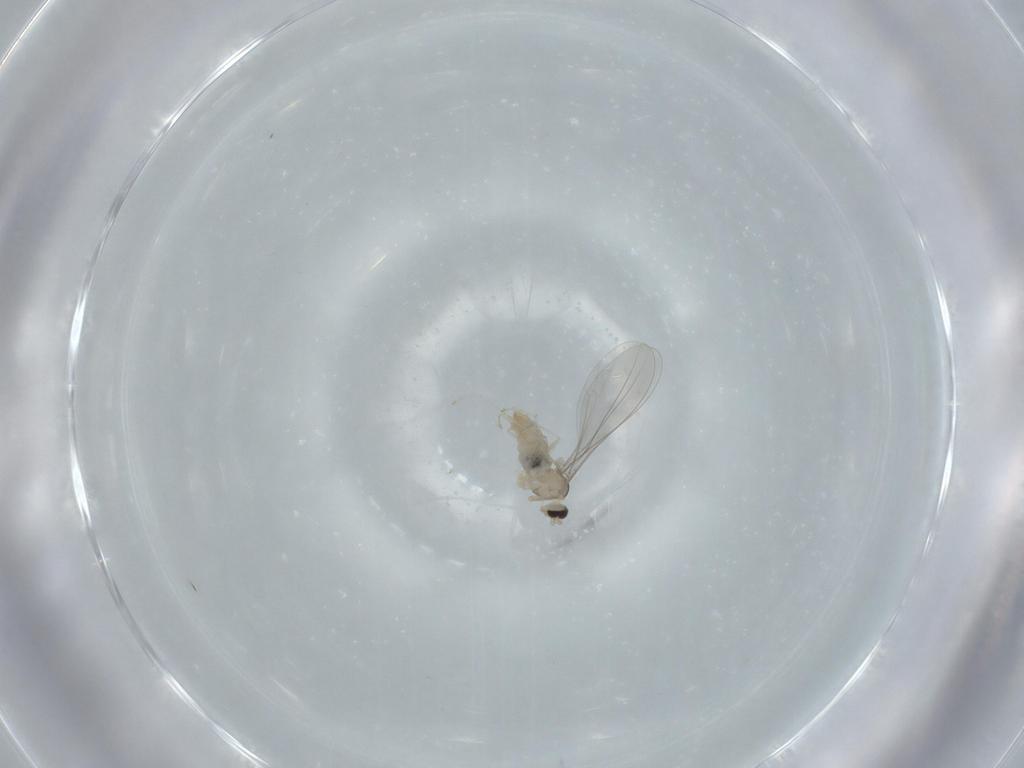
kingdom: Animalia
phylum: Arthropoda
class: Insecta
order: Diptera
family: Cecidomyiidae
